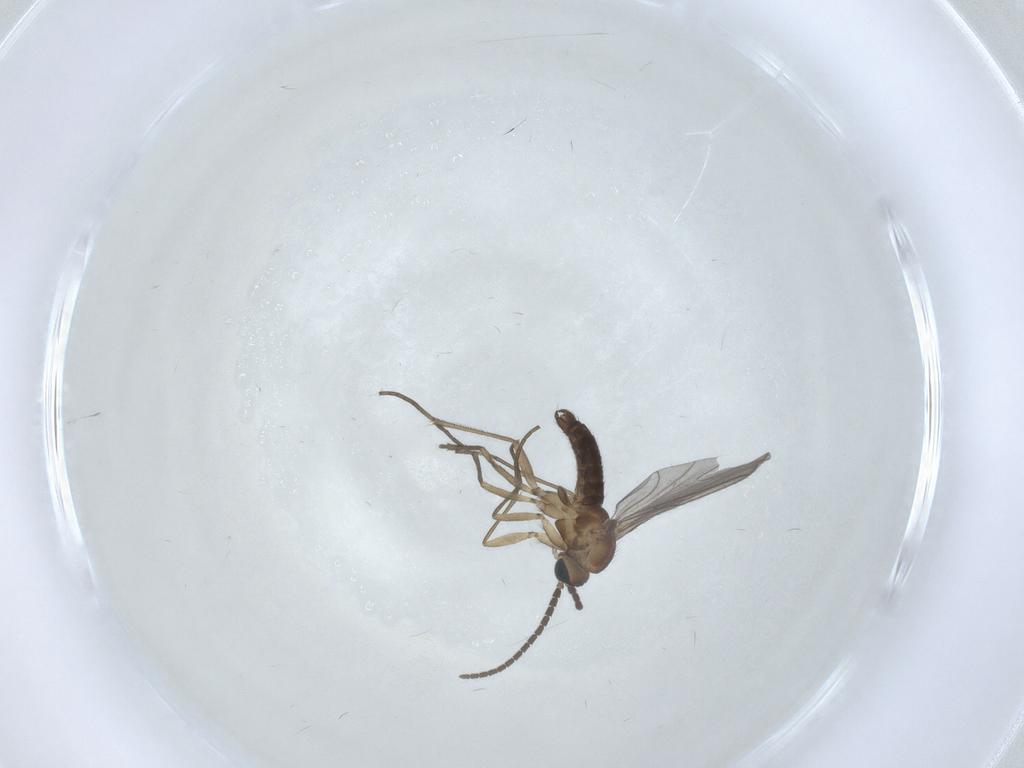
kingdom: Animalia
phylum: Arthropoda
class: Insecta
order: Diptera
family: Sciaridae
